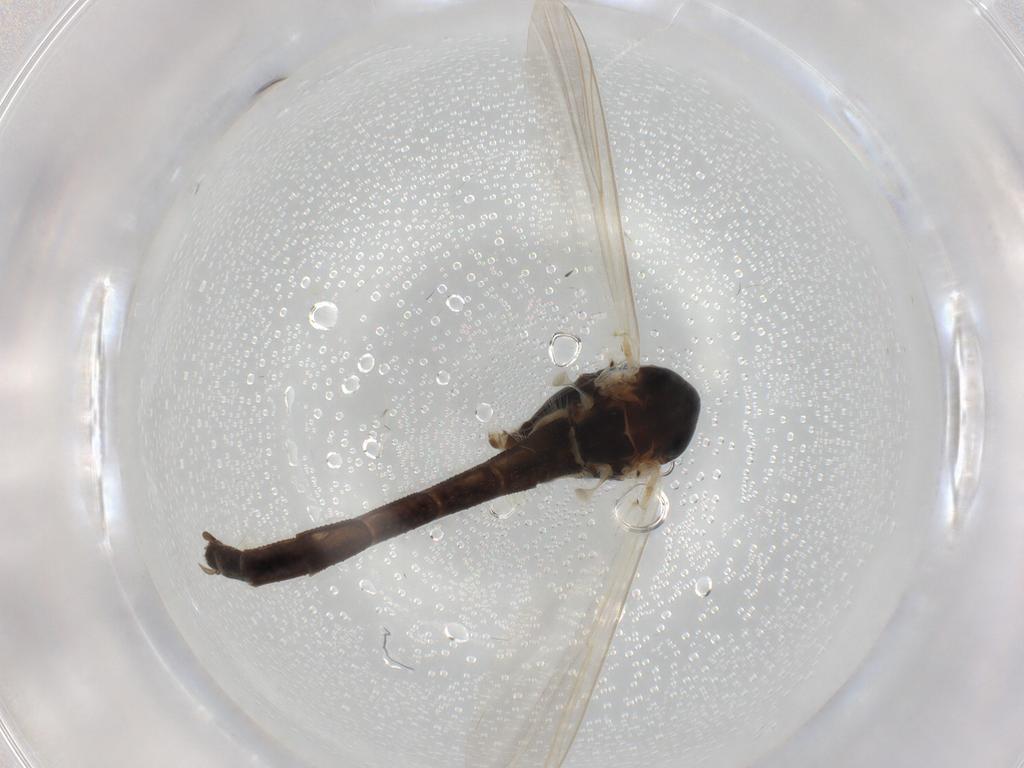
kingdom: Animalia
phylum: Arthropoda
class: Insecta
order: Diptera
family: Chironomidae
